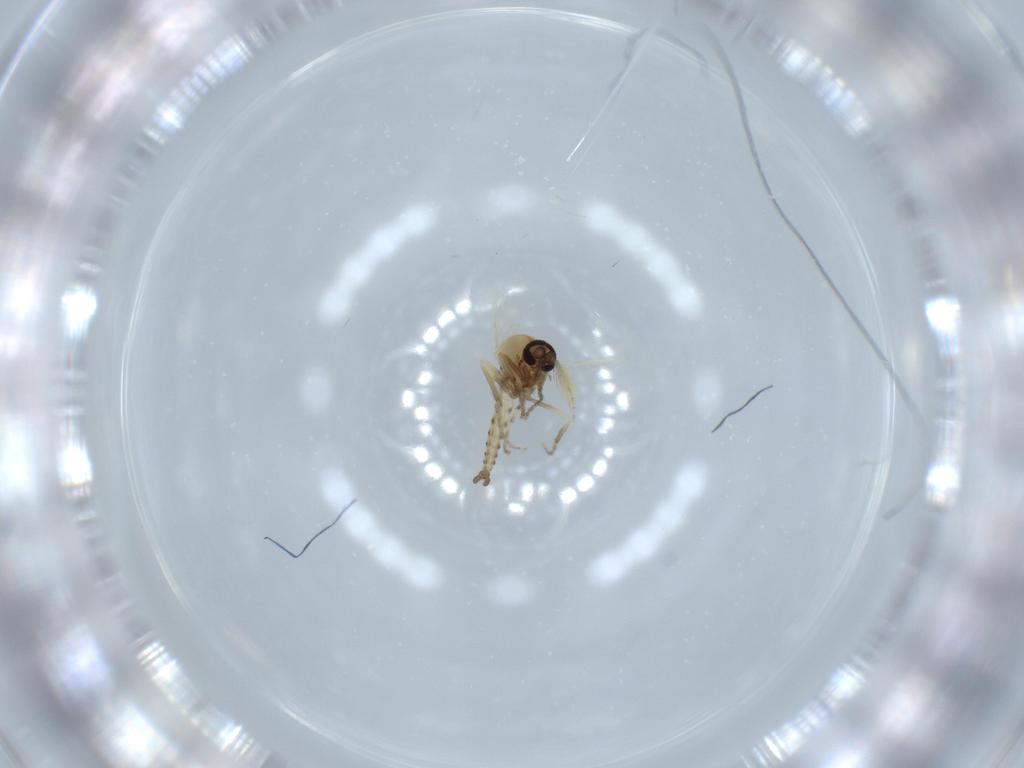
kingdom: Animalia
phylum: Arthropoda
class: Insecta
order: Diptera
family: Ceratopogonidae
